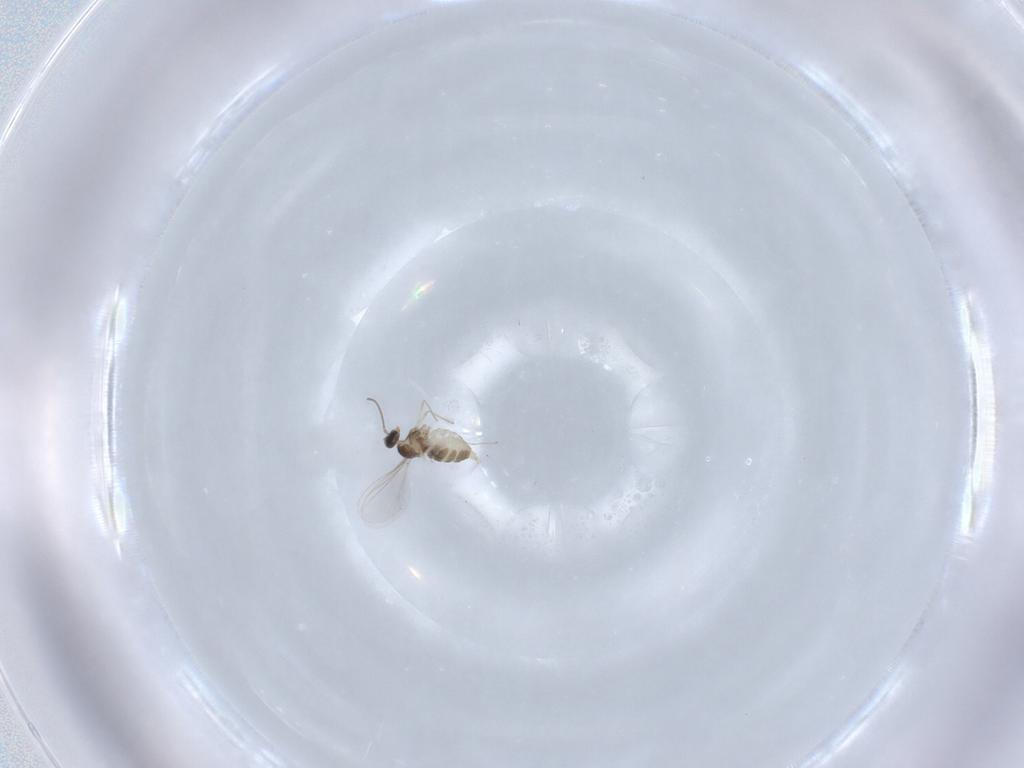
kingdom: Animalia
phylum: Arthropoda
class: Insecta
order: Diptera
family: Cecidomyiidae
